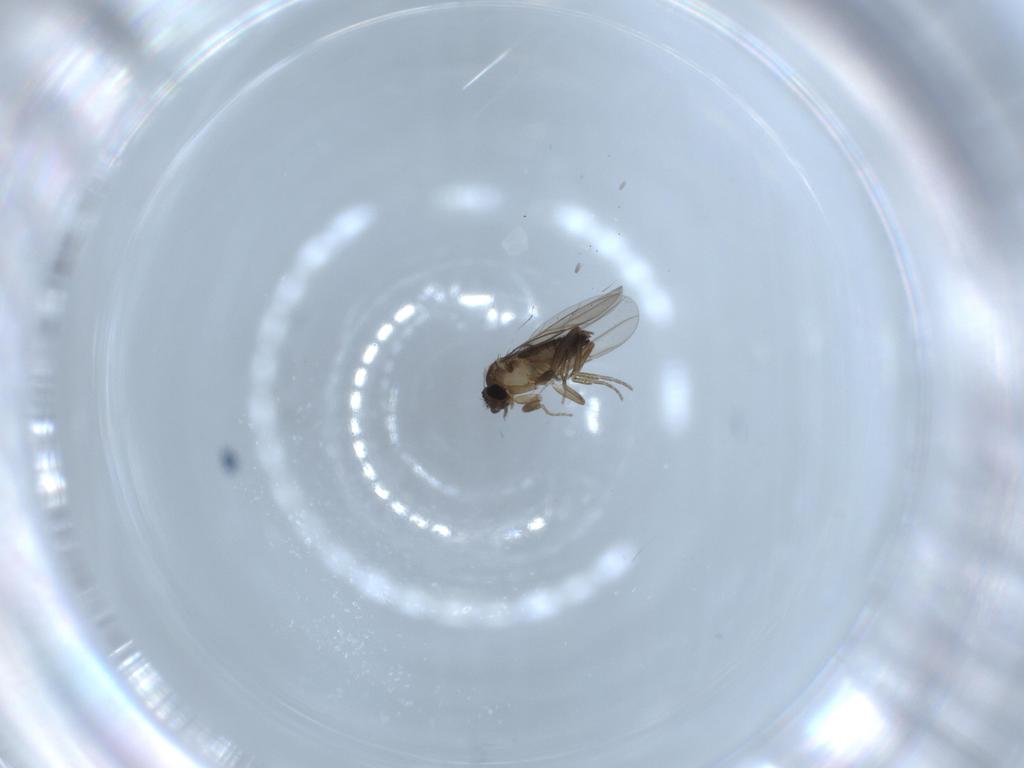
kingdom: Animalia
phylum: Arthropoda
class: Insecta
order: Diptera
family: Phoridae
